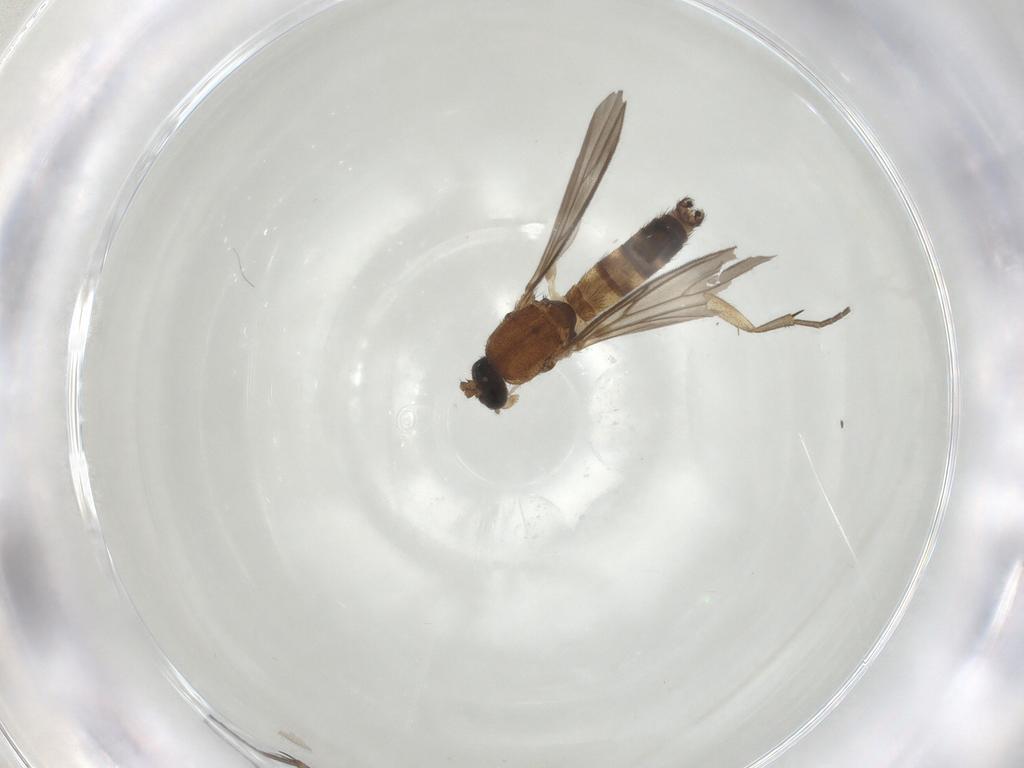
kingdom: Animalia
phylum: Arthropoda
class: Insecta
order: Diptera
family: Mycetophilidae
